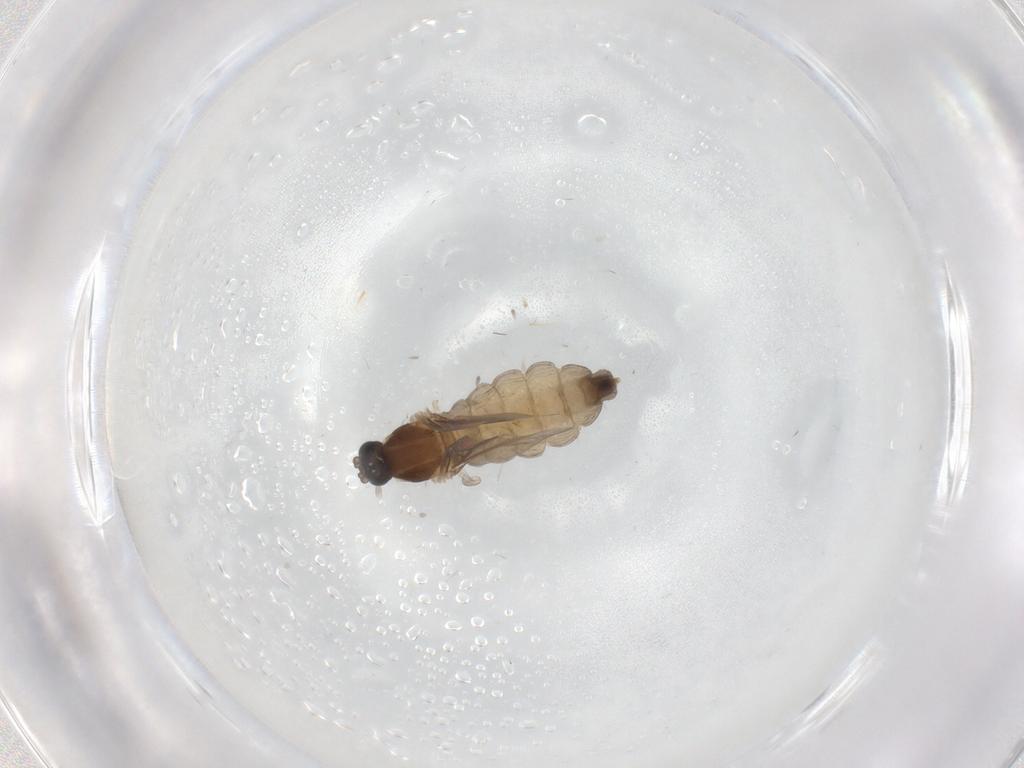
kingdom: Animalia
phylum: Arthropoda
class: Insecta
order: Diptera
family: Cecidomyiidae
